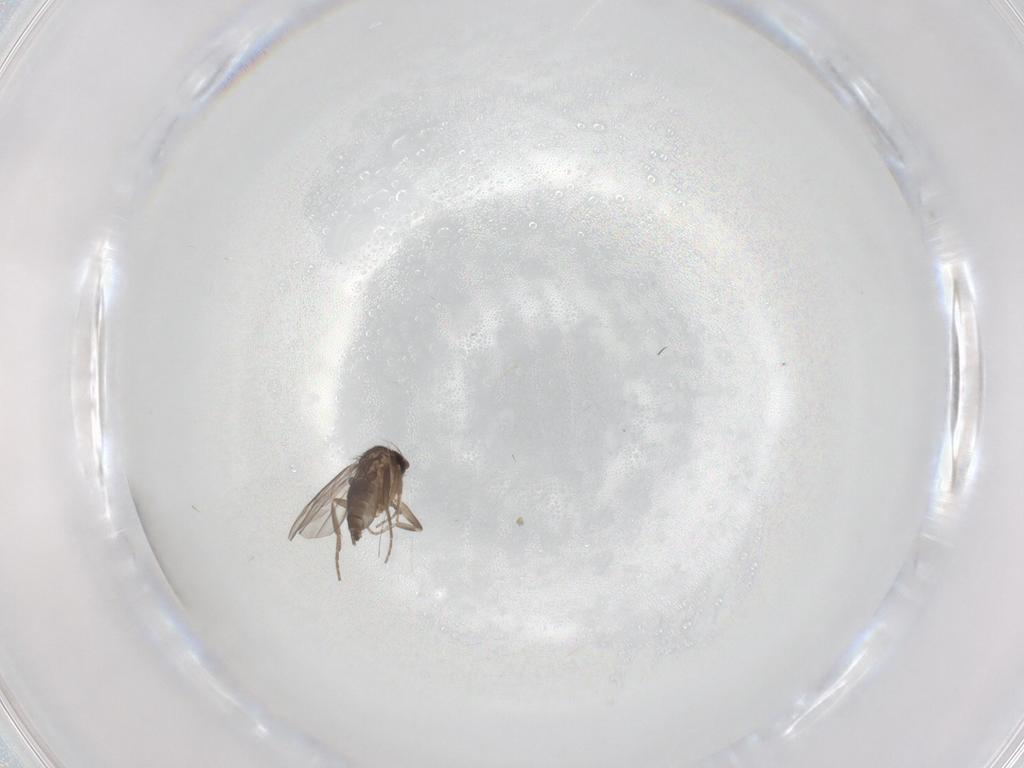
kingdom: Animalia
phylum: Arthropoda
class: Insecta
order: Diptera
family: Phoridae
